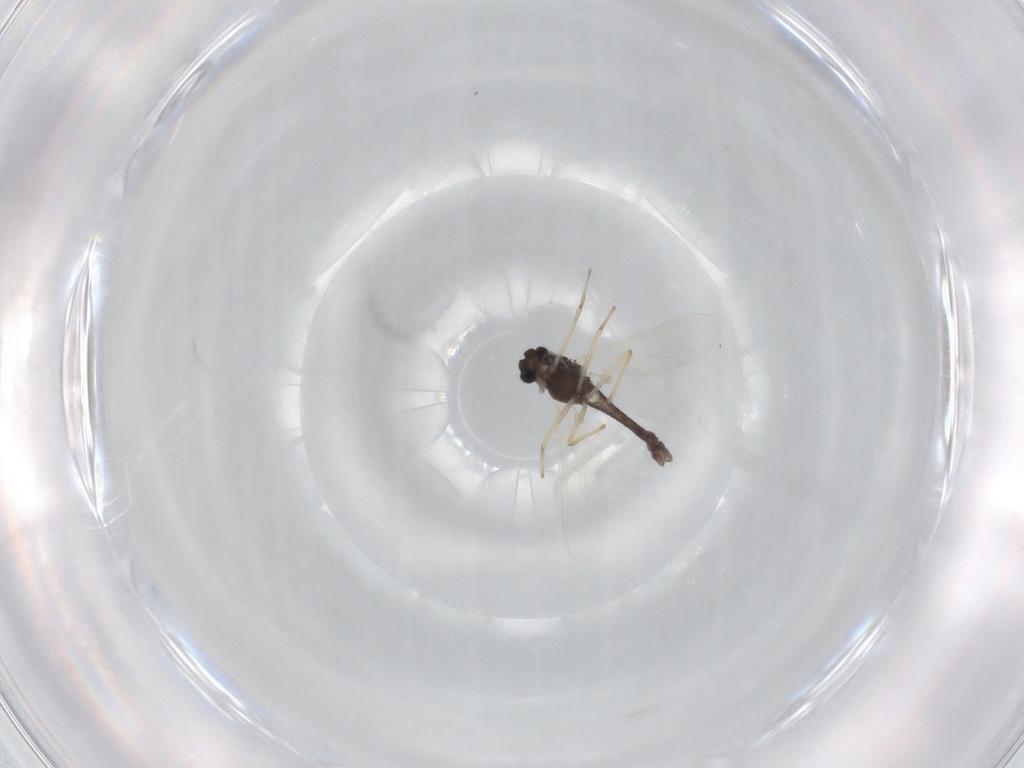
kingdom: Animalia
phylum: Arthropoda
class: Insecta
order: Diptera
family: Chironomidae
